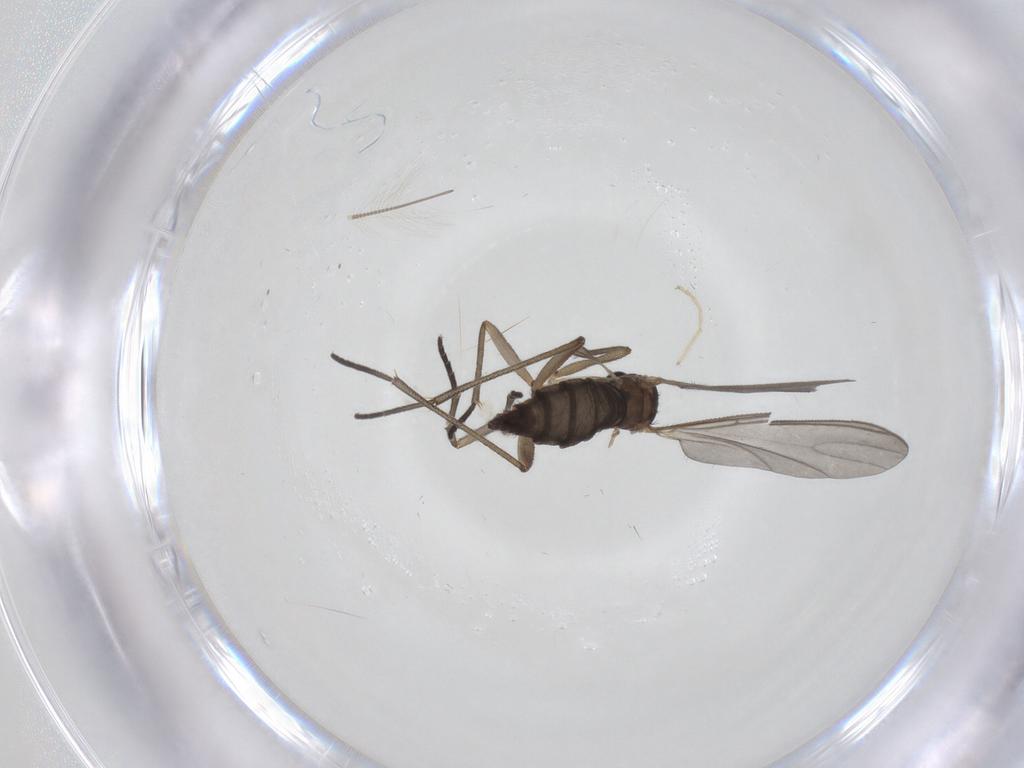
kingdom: Animalia
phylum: Arthropoda
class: Insecta
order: Diptera
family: Sciaridae
